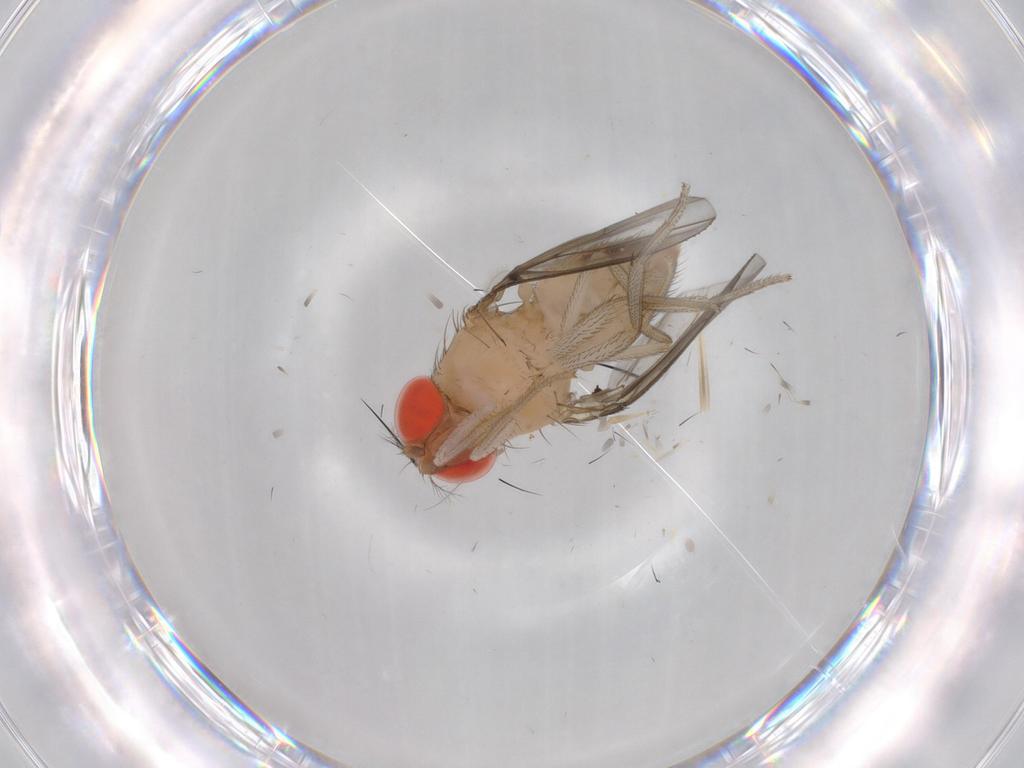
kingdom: Animalia
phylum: Arthropoda
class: Insecta
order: Diptera
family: Drosophilidae
